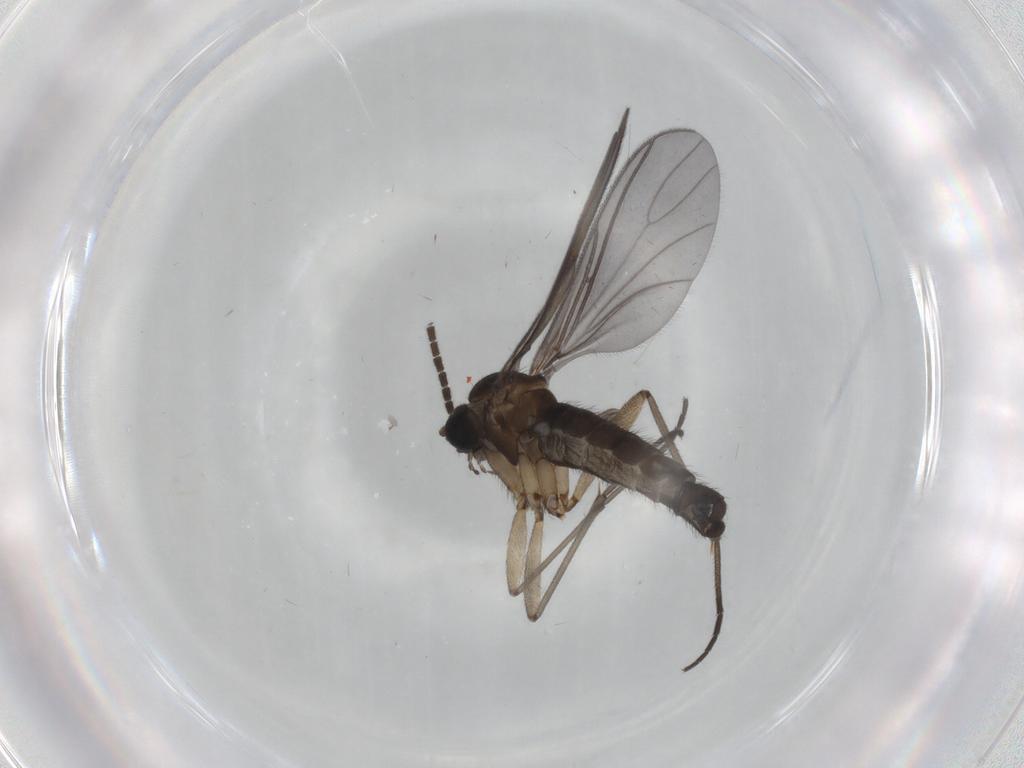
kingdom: Animalia
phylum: Arthropoda
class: Insecta
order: Diptera
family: Sciaridae
